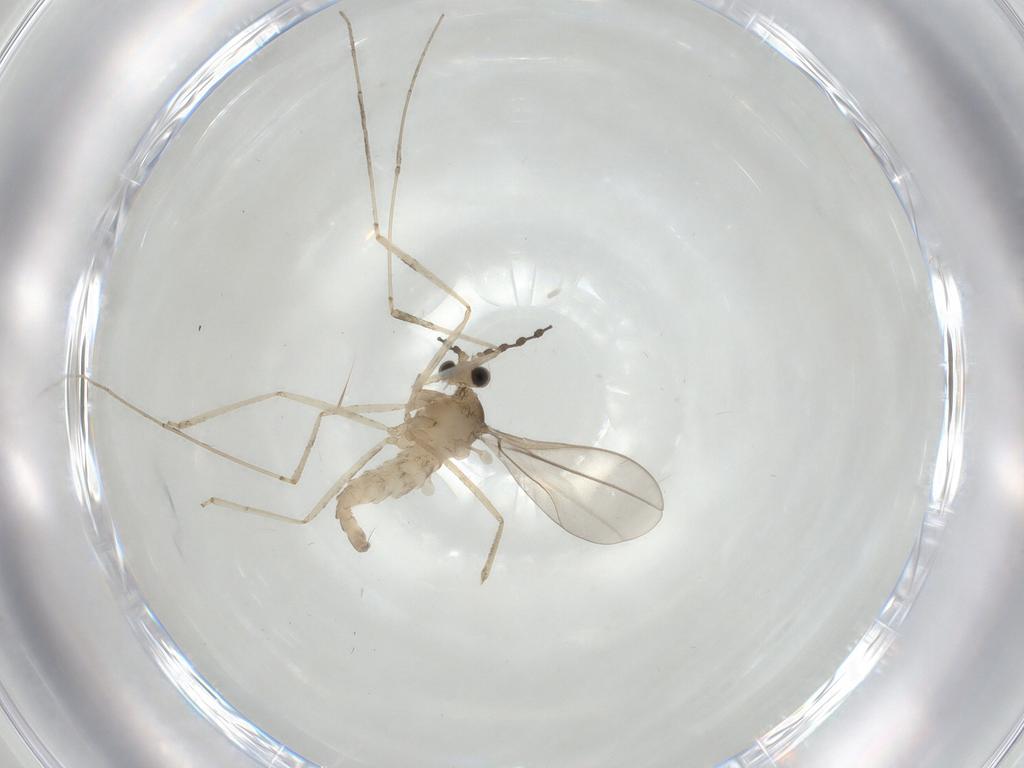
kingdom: Animalia
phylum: Arthropoda
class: Insecta
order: Diptera
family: Cecidomyiidae
